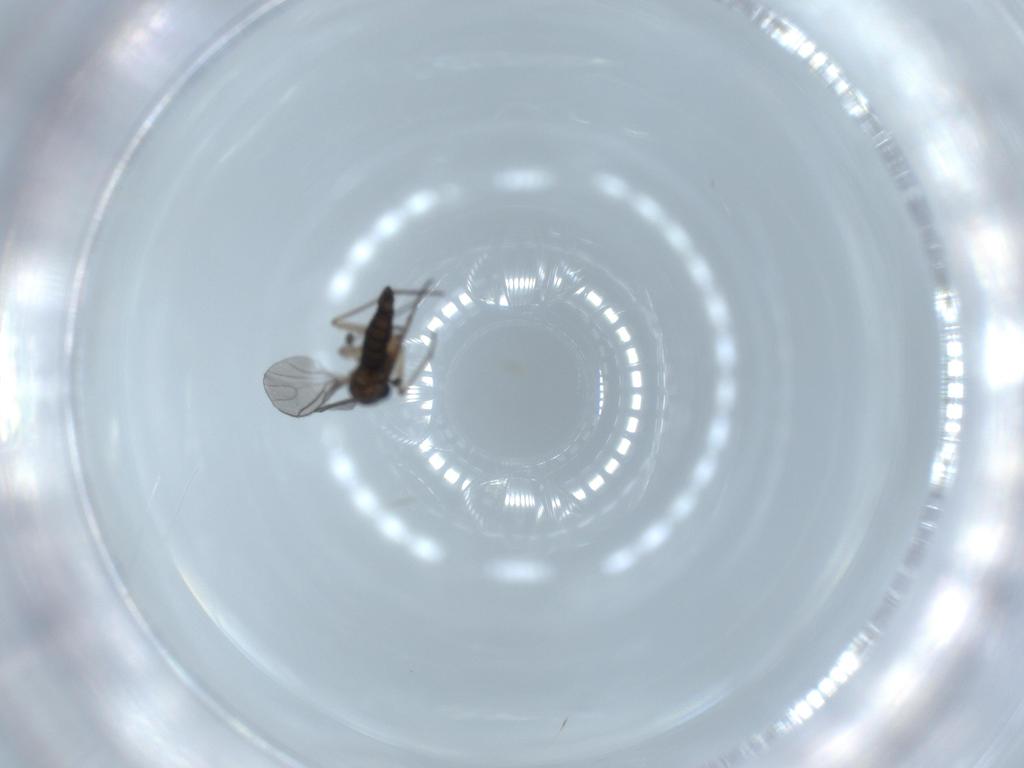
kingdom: Animalia
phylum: Arthropoda
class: Insecta
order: Diptera
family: Sciaridae
